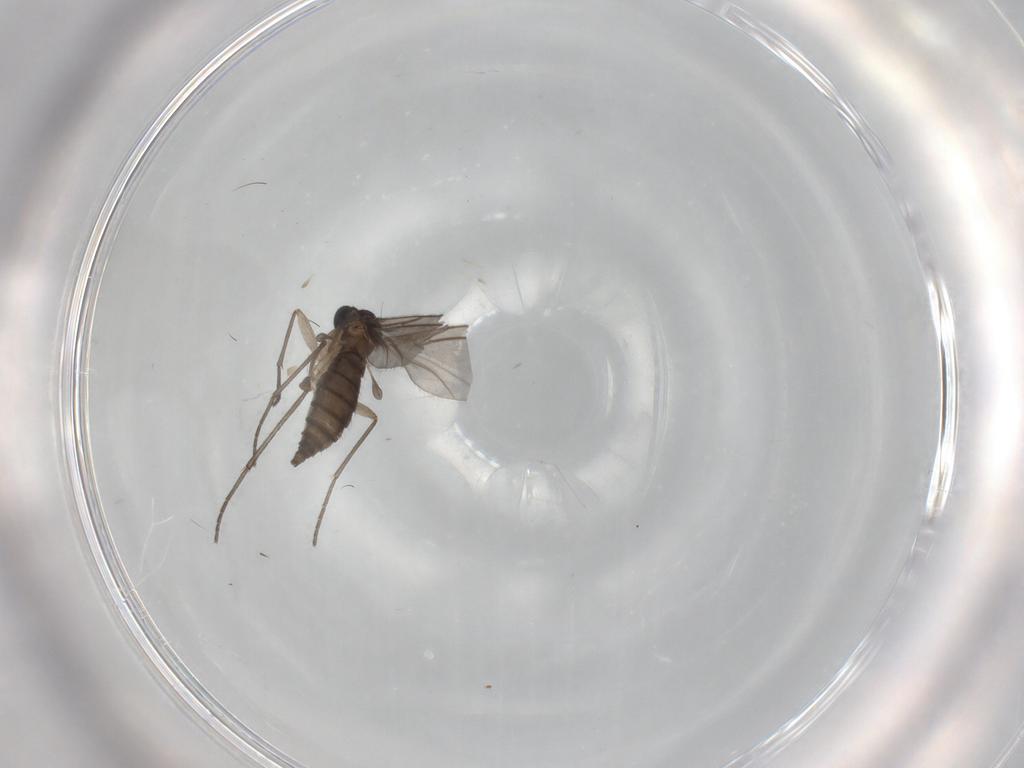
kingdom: Animalia
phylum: Arthropoda
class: Insecta
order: Diptera
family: Sciaridae
